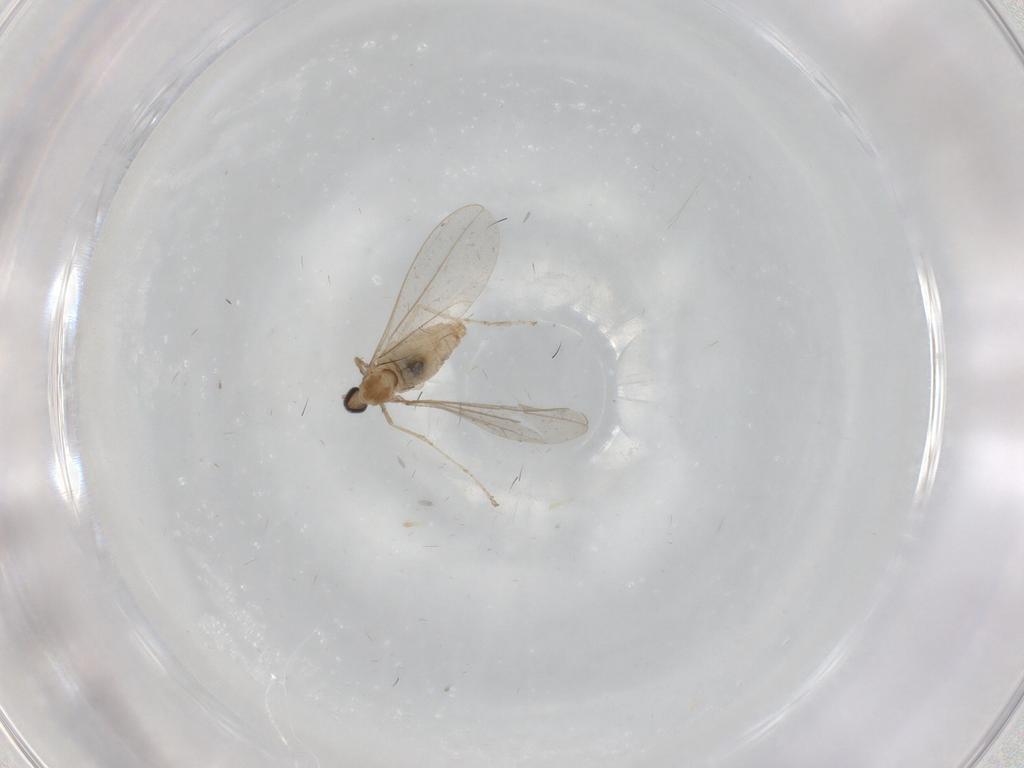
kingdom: Animalia
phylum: Arthropoda
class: Insecta
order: Diptera
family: Cecidomyiidae
